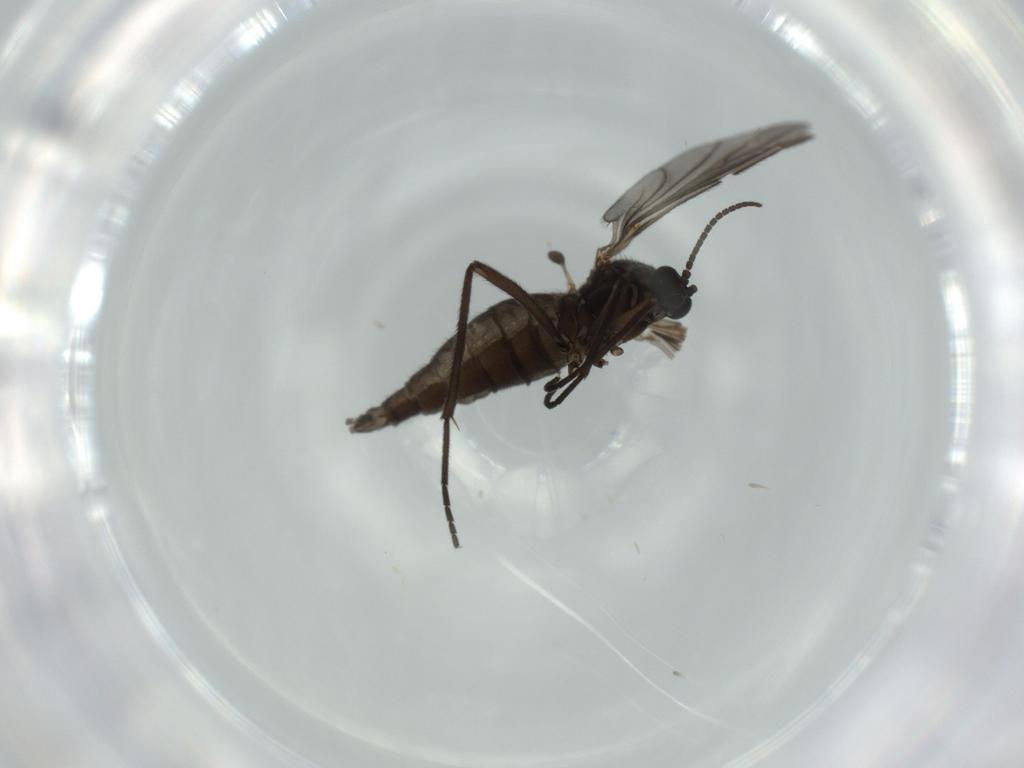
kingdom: Animalia
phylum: Arthropoda
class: Insecta
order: Diptera
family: Sciaridae
